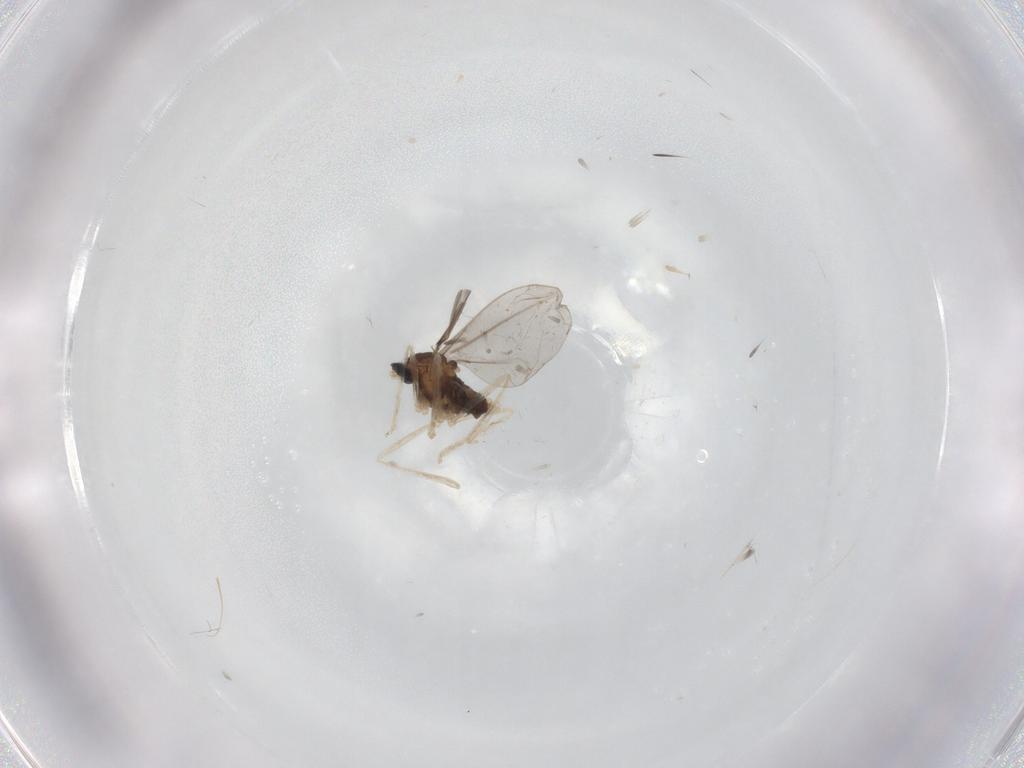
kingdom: Animalia
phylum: Arthropoda
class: Insecta
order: Diptera
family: Cecidomyiidae
